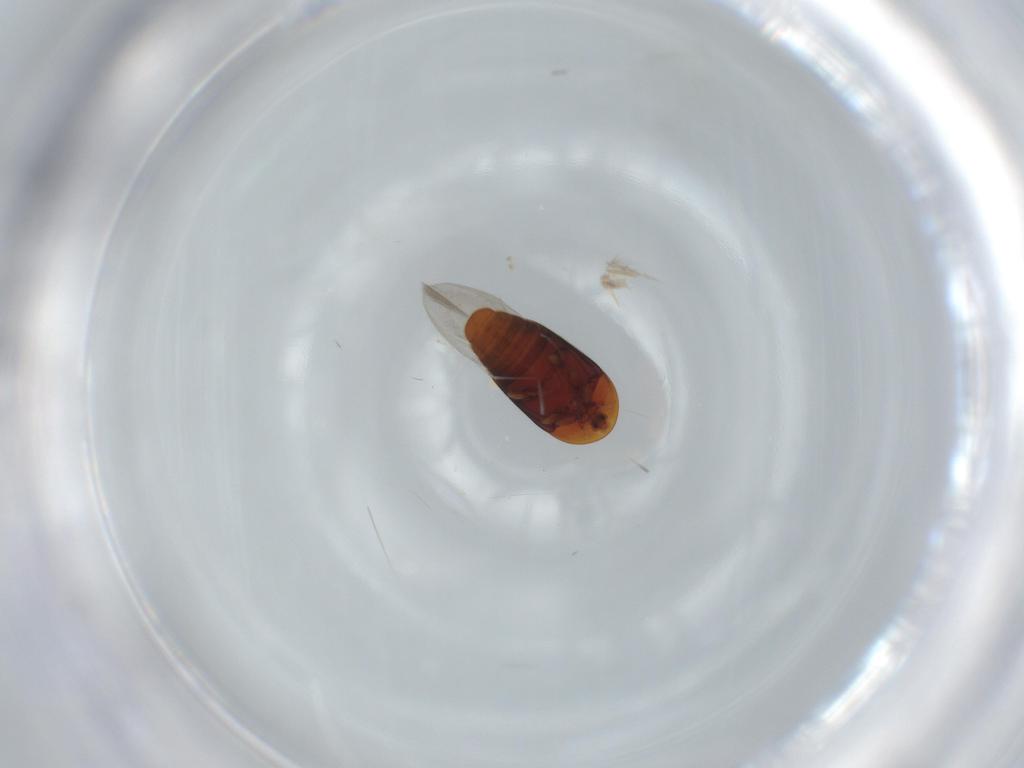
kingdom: Animalia
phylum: Arthropoda
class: Insecta
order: Coleoptera
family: Curculionidae
